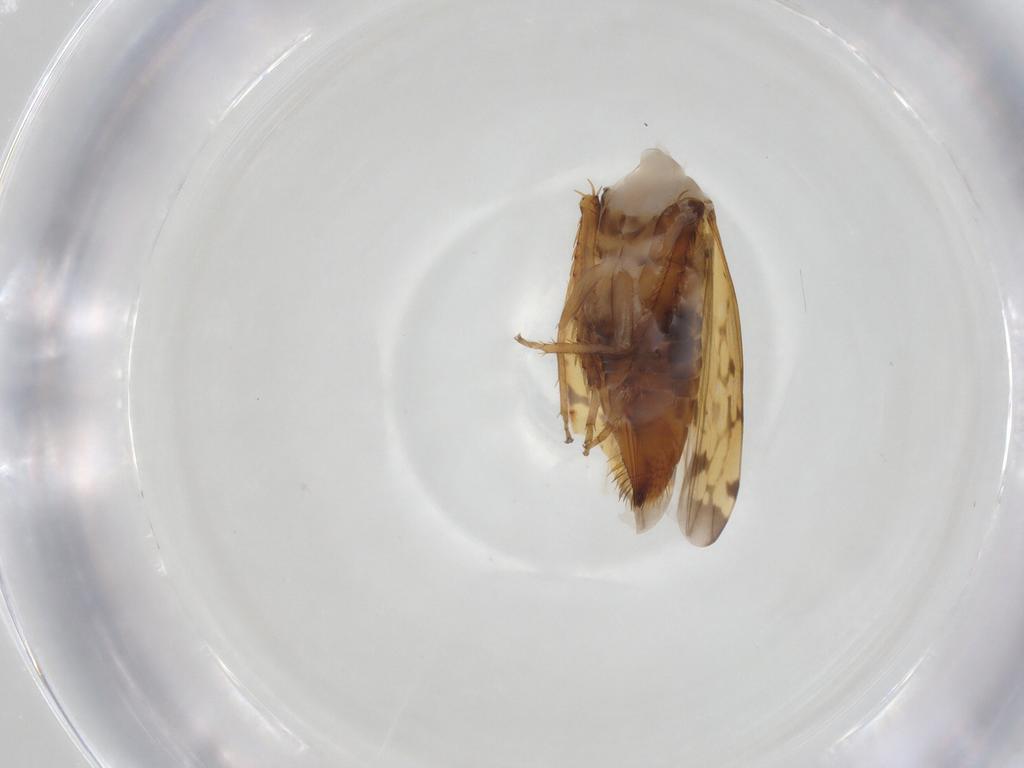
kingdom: Animalia
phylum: Arthropoda
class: Insecta
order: Hemiptera
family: Cicadellidae
